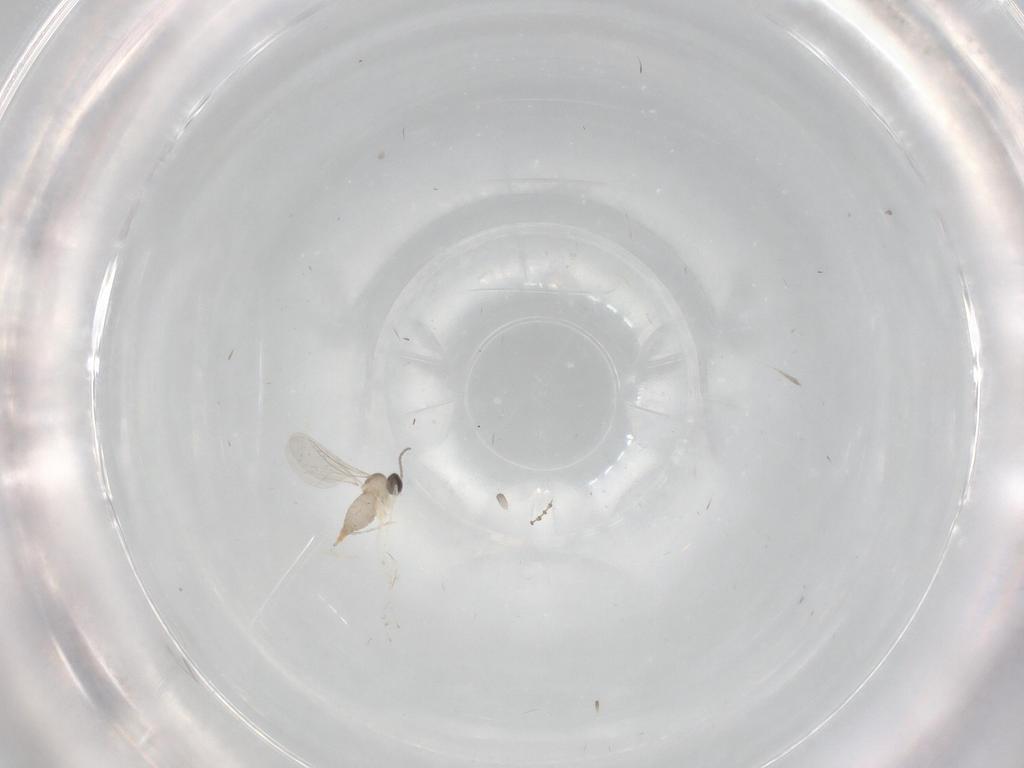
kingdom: Animalia
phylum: Arthropoda
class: Insecta
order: Diptera
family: Cecidomyiidae
